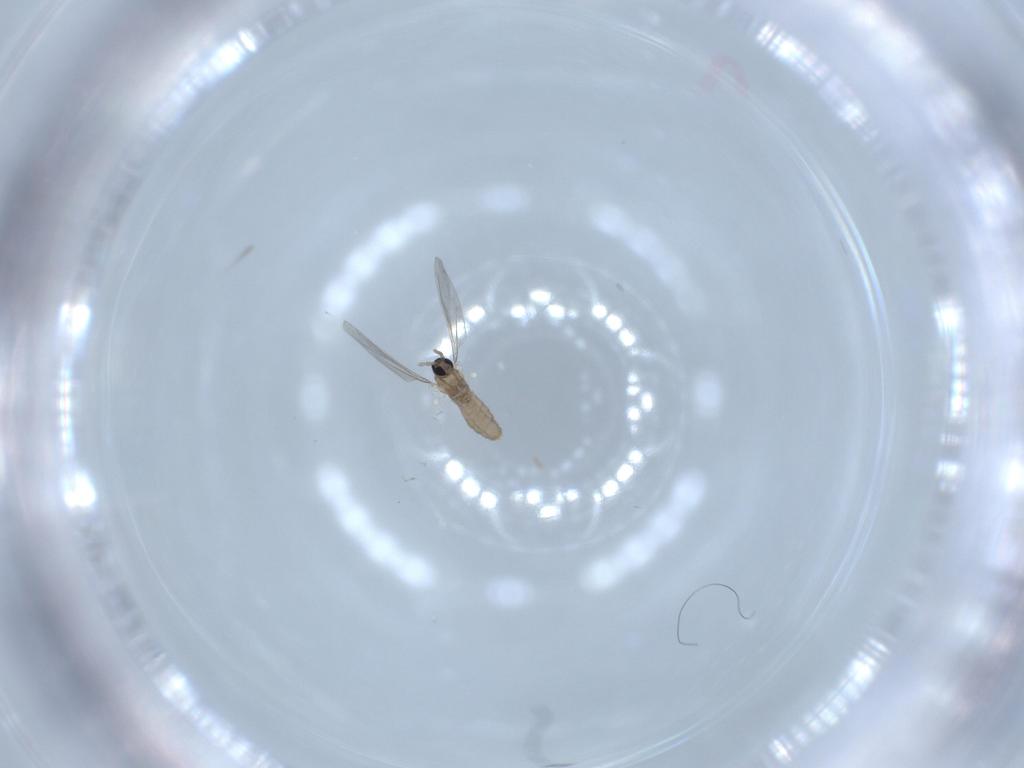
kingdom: Animalia
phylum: Arthropoda
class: Insecta
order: Diptera
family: Cecidomyiidae
